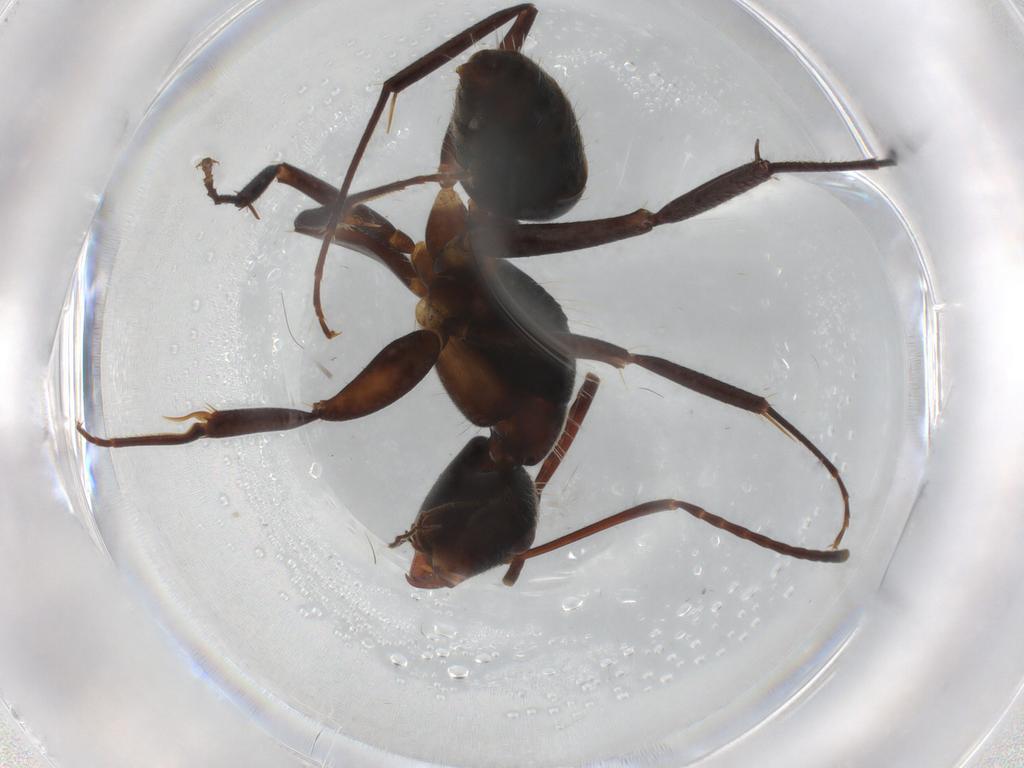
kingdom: Animalia
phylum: Arthropoda
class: Insecta
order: Hymenoptera
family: Formicidae
